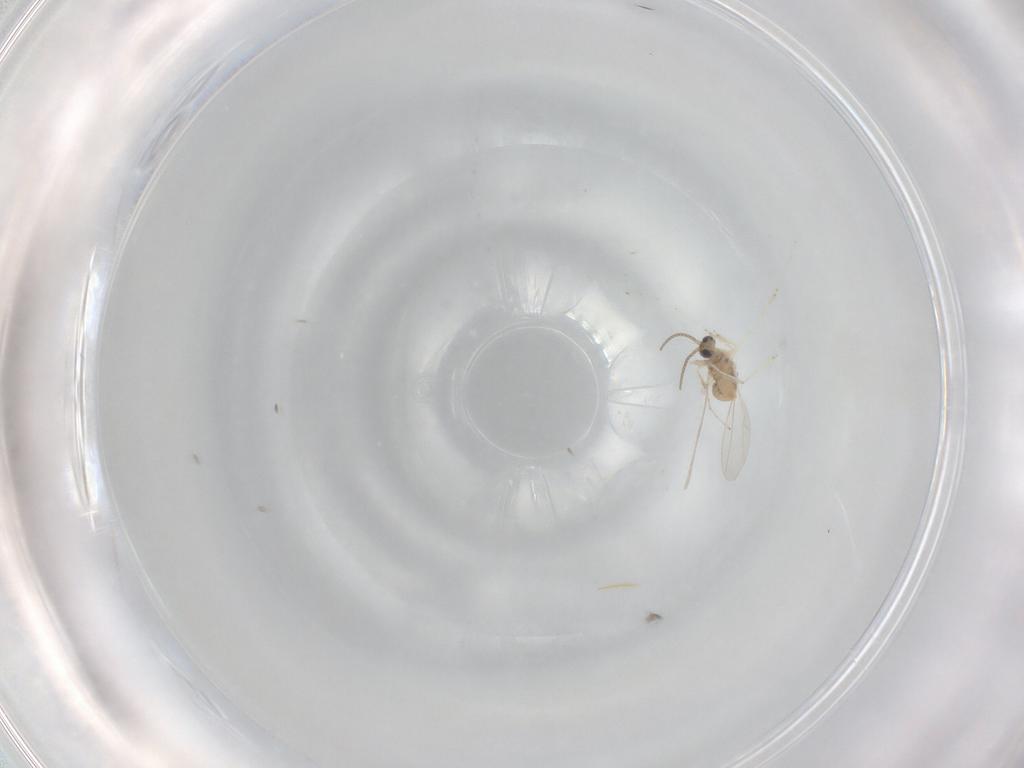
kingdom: Animalia
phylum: Arthropoda
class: Insecta
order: Diptera
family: Cecidomyiidae
